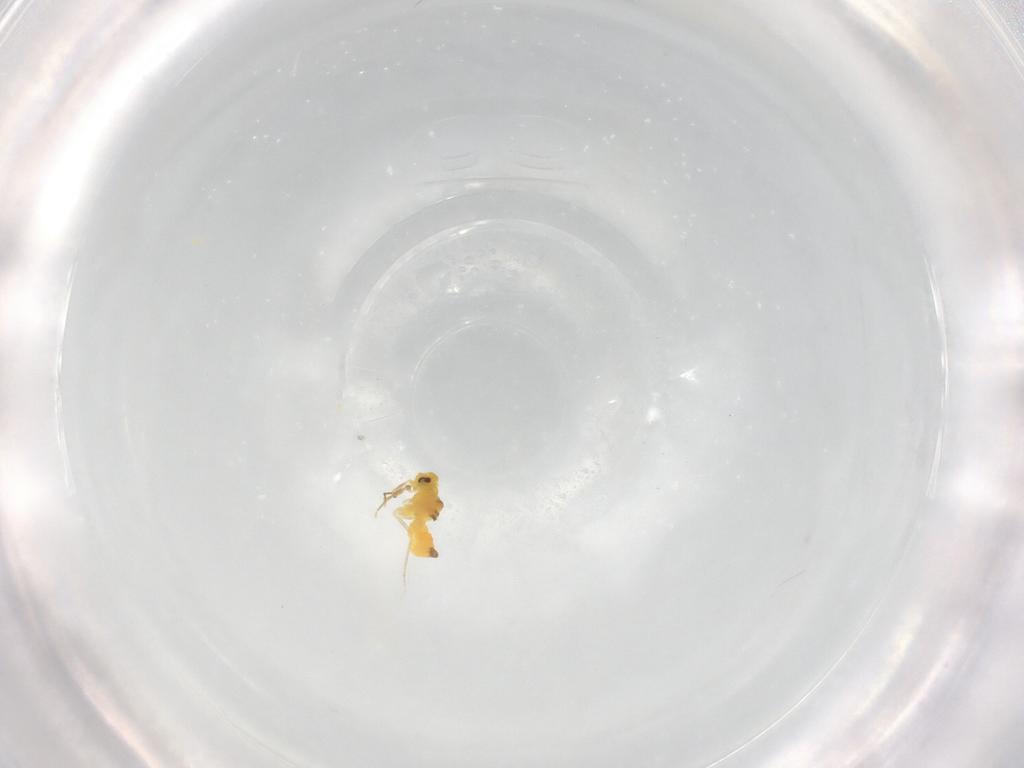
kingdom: Animalia
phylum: Arthropoda
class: Insecta
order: Hemiptera
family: Aleyrodidae
